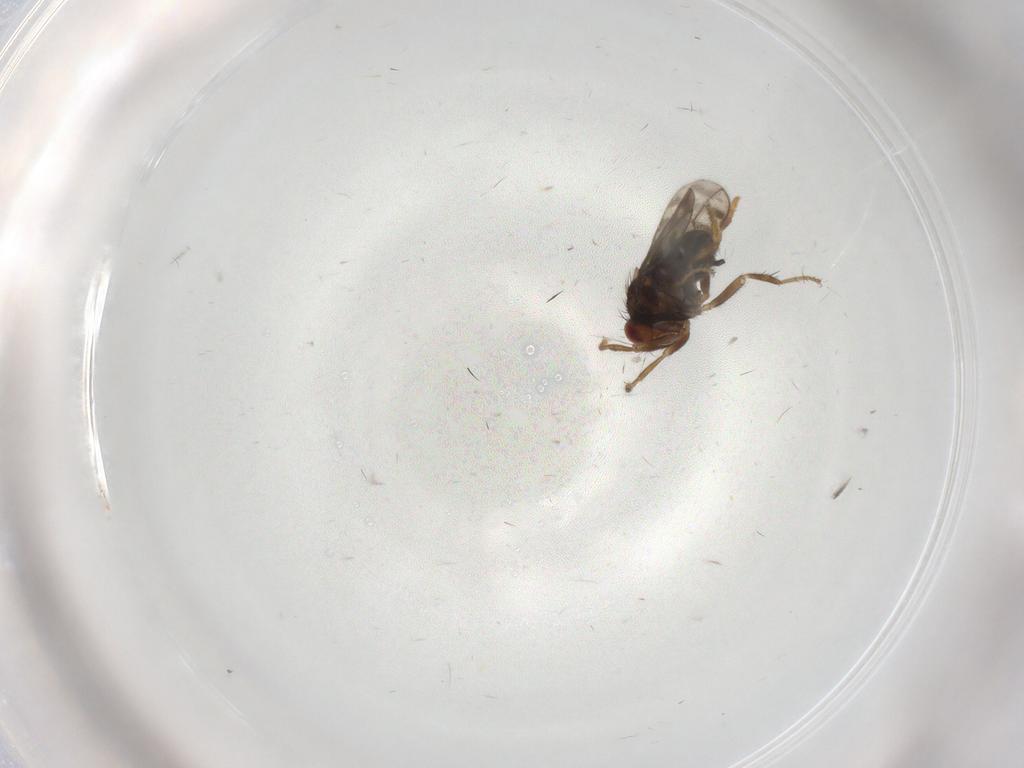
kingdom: Animalia
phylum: Arthropoda
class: Insecta
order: Diptera
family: Sphaeroceridae
